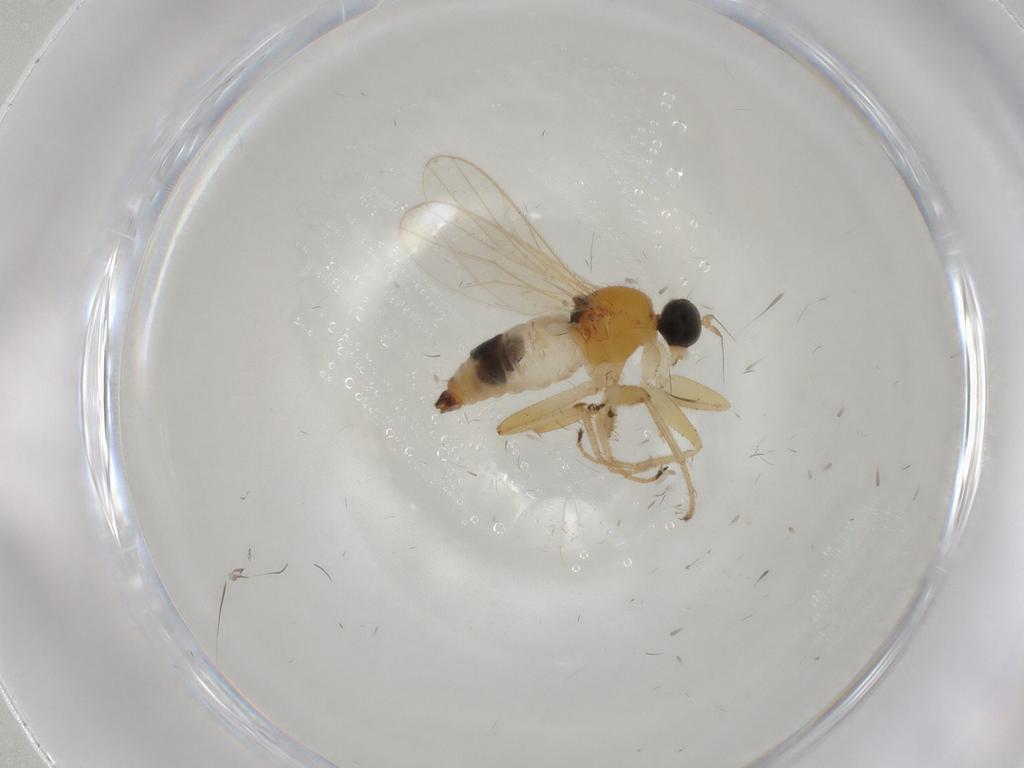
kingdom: Animalia
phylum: Arthropoda
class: Insecta
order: Diptera
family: Hybotidae
